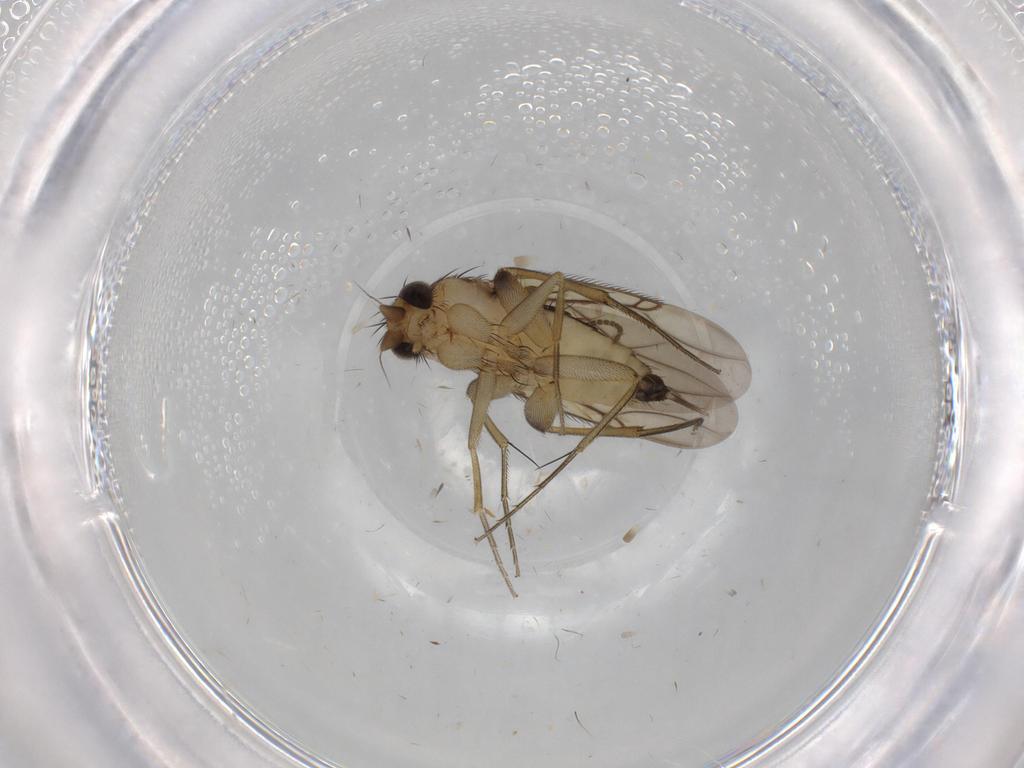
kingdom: Animalia
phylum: Arthropoda
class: Insecta
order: Diptera
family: Phoridae
